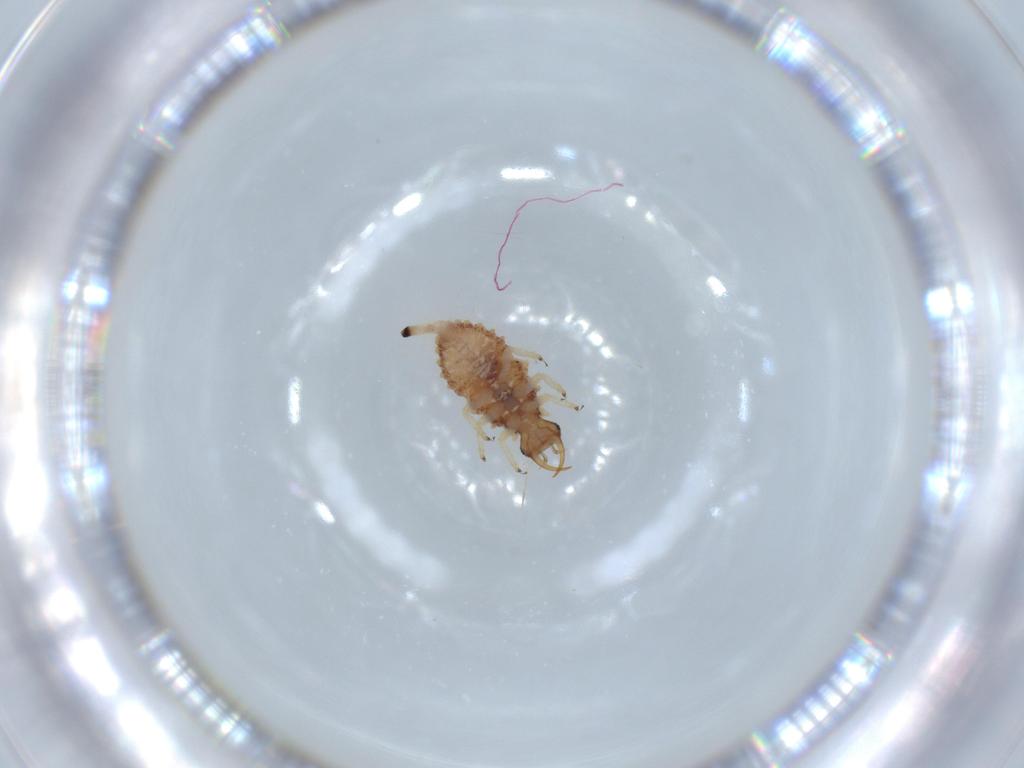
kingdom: Animalia
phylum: Arthropoda
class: Insecta
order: Neuroptera
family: Chrysopidae
